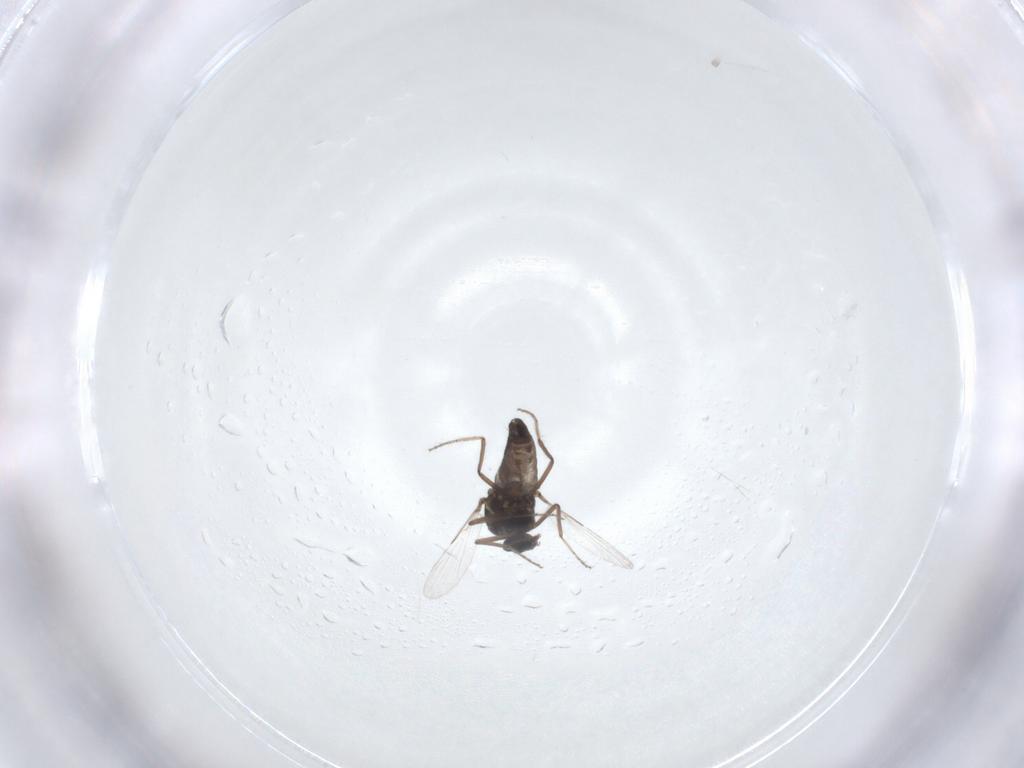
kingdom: Animalia
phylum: Arthropoda
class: Insecta
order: Diptera
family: Ceratopogonidae
